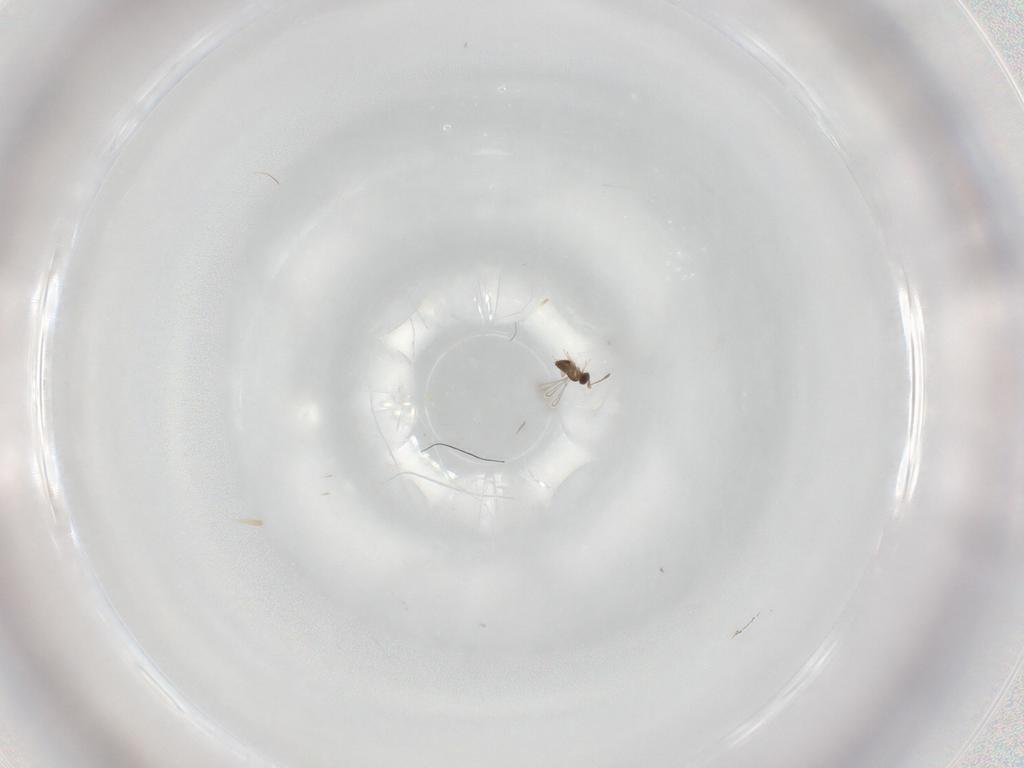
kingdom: Animalia
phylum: Arthropoda
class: Insecta
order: Hymenoptera
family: Mymaridae
